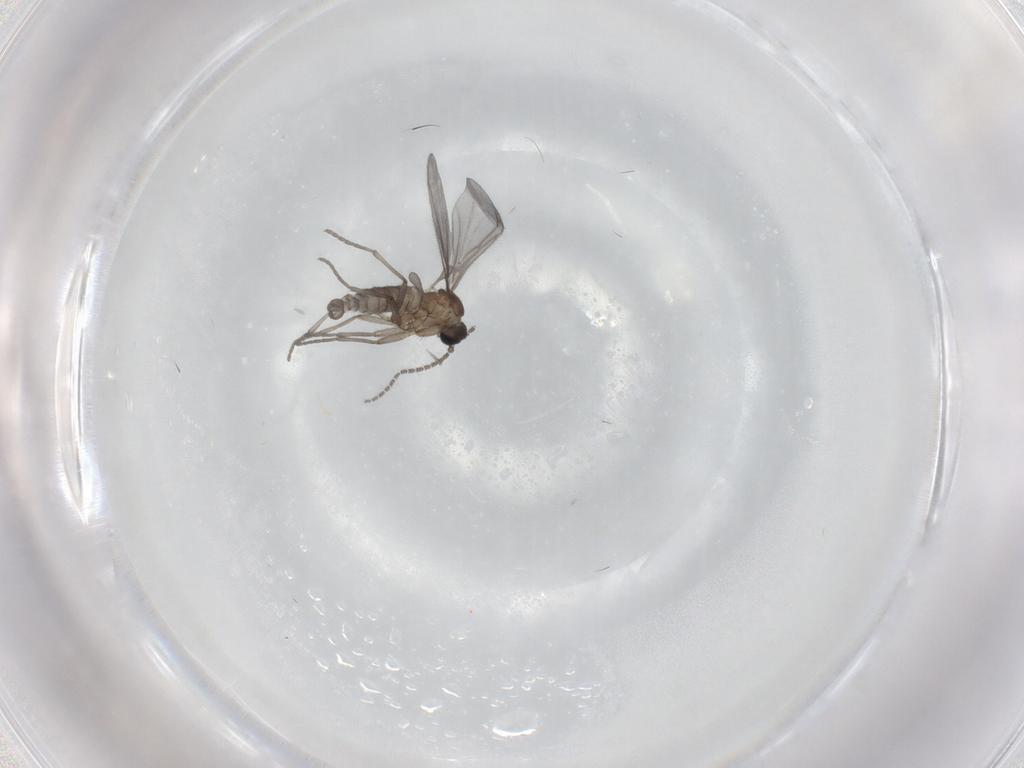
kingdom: Animalia
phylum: Arthropoda
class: Insecta
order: Diptera
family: Sciaridae
